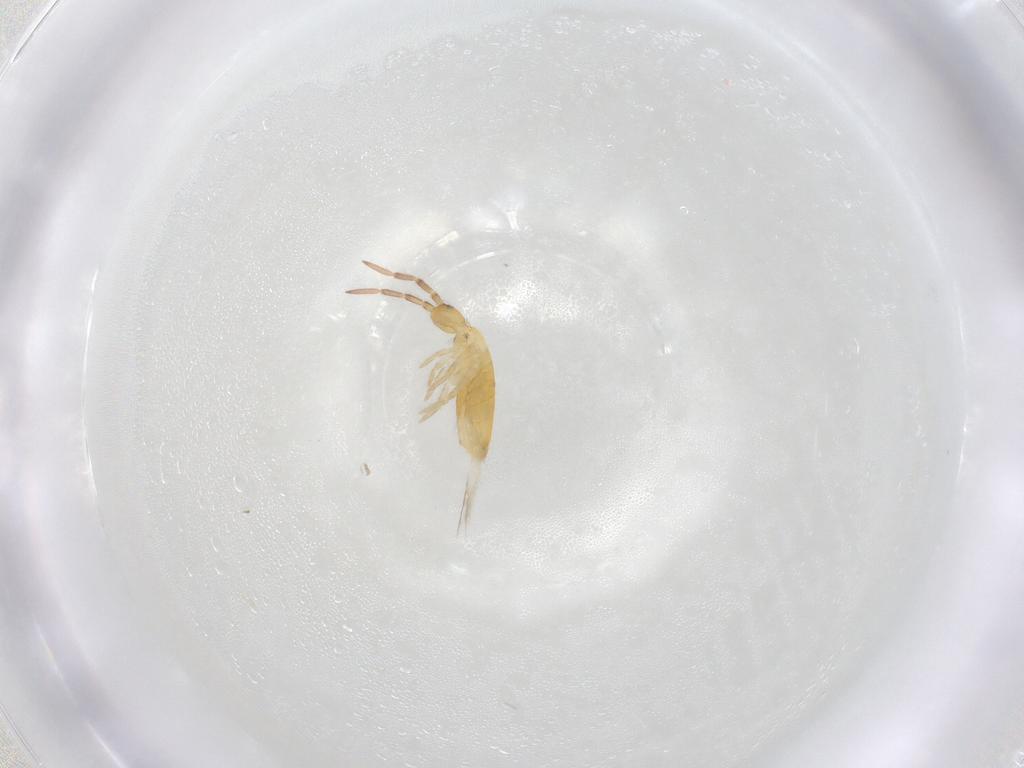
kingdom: Animalia
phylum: Arthropoda
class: Collembola
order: Entomobryomorpha
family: Entomobryidae
